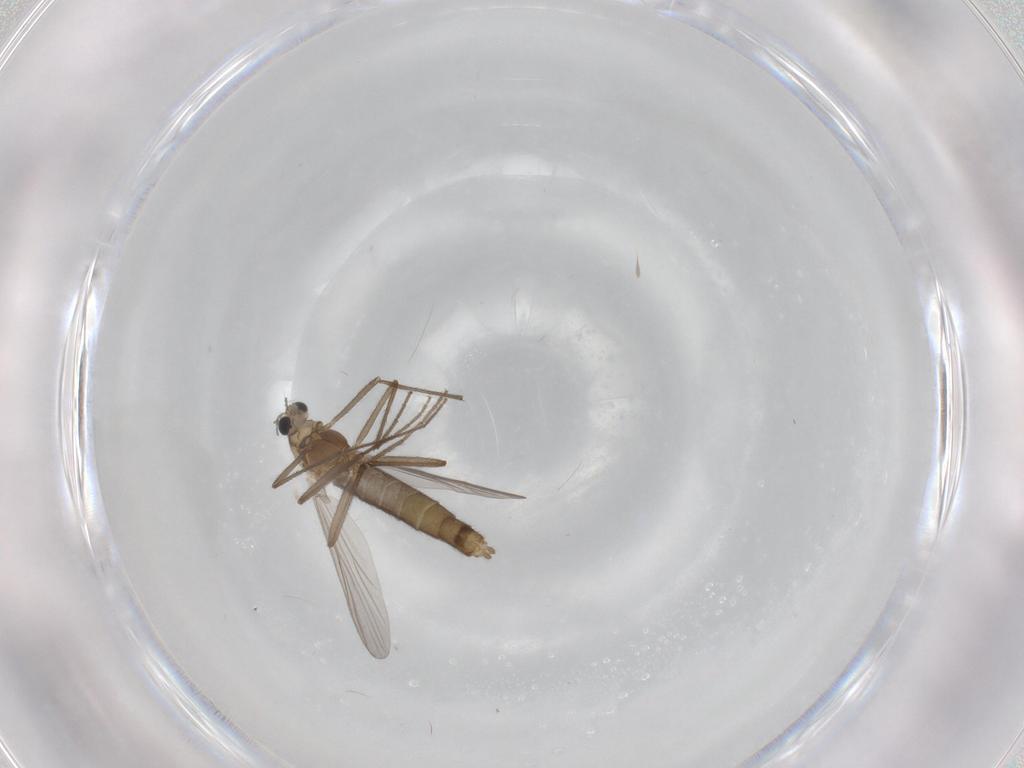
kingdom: Animalia
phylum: Arthropoda
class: Insecta
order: Diptera
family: Chironomidae
